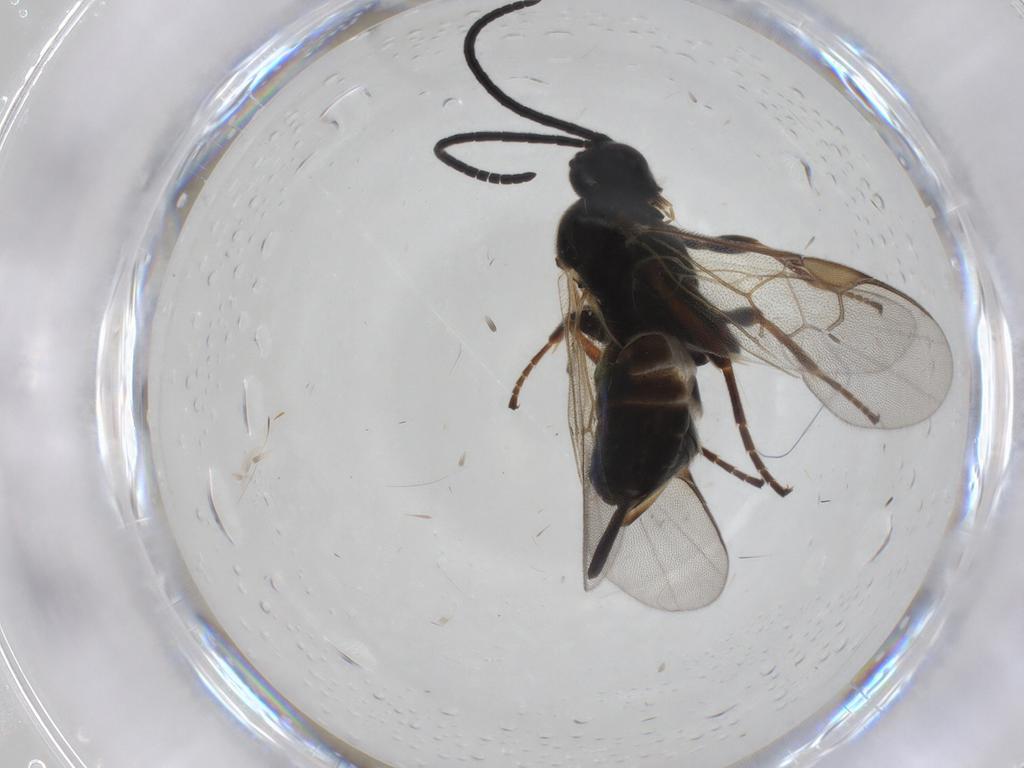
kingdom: Animalia
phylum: Arthropoda
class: Insecta
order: Hymenoptera
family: Braconidae
